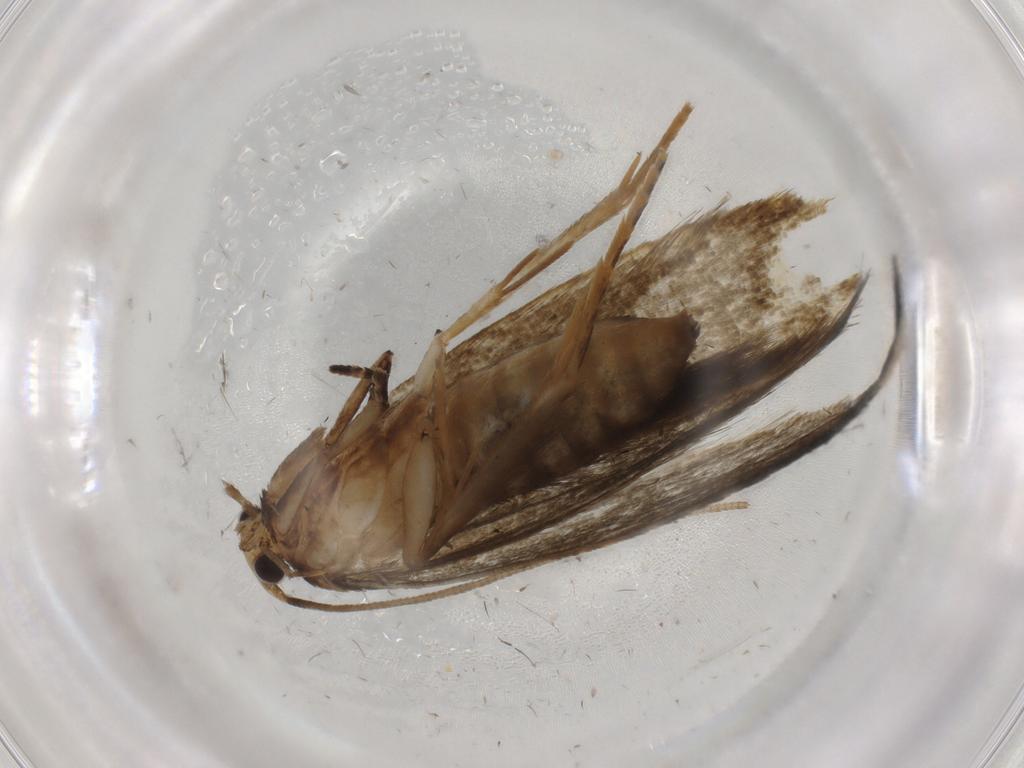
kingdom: Animalia
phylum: Arthropoda
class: Insecta
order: Lepidoptera
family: Tineidae
